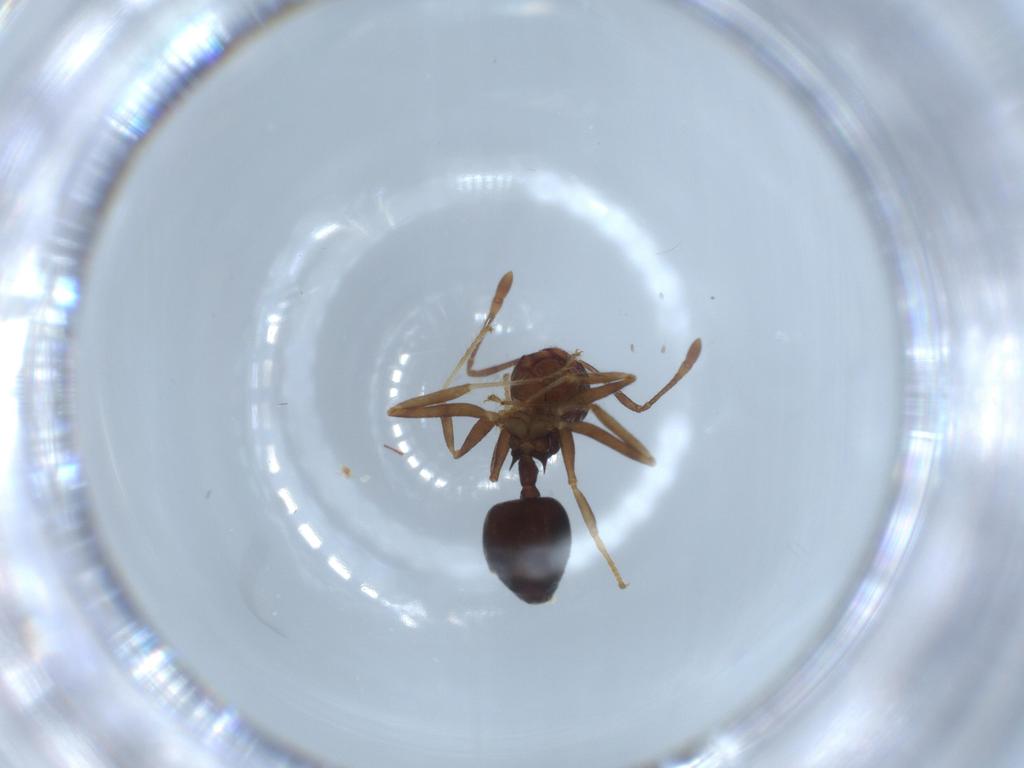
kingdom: Animalia
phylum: Arthropoda
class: Insecta
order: Hymenoptera
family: Formicidae
